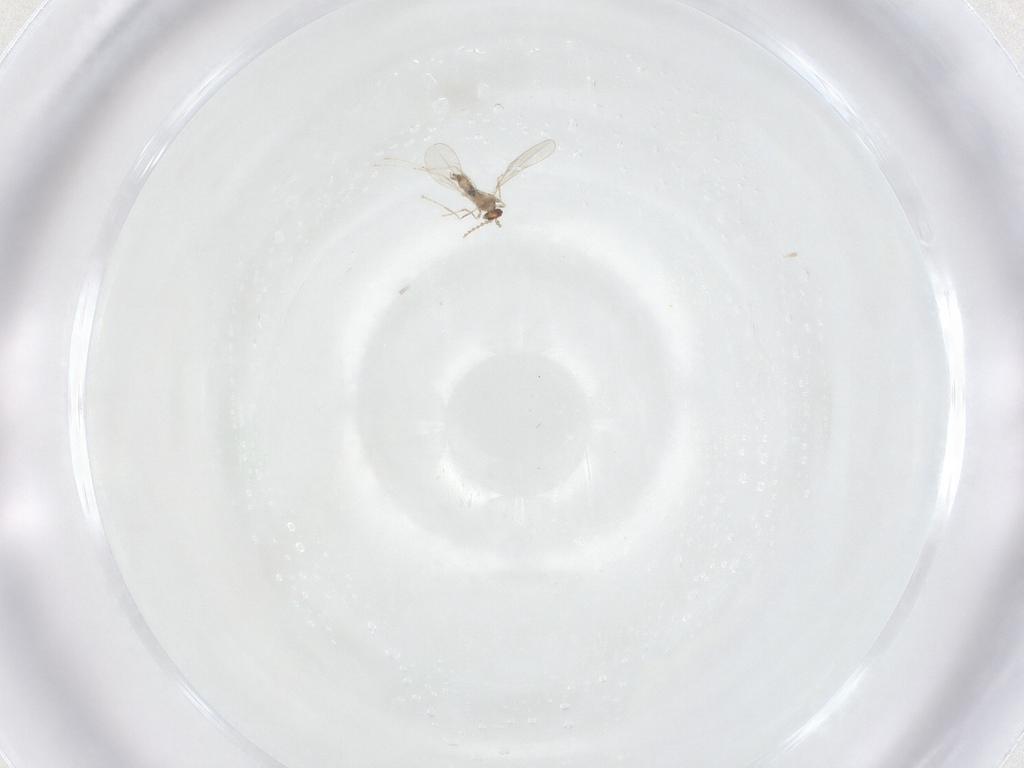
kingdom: Animalia
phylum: Arthropoda
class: Insecta
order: Diptera
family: Cecidomyiidae
